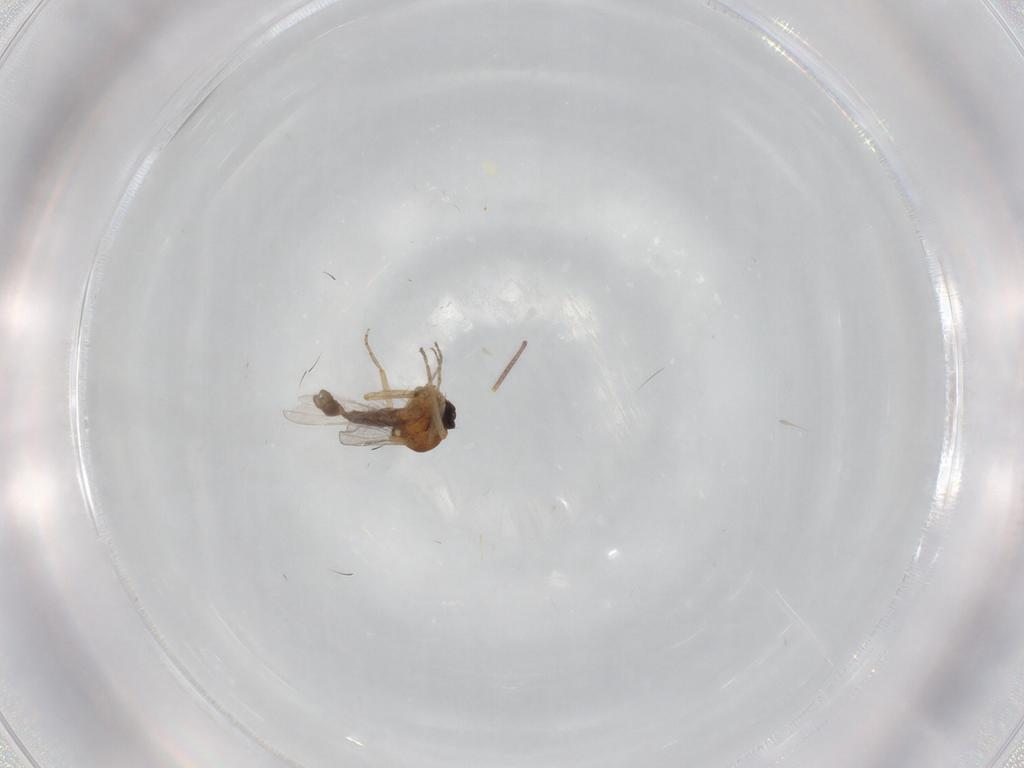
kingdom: Animalia
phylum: Arthropoda
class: Insecta
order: Diptera
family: Ceratopogonidae
